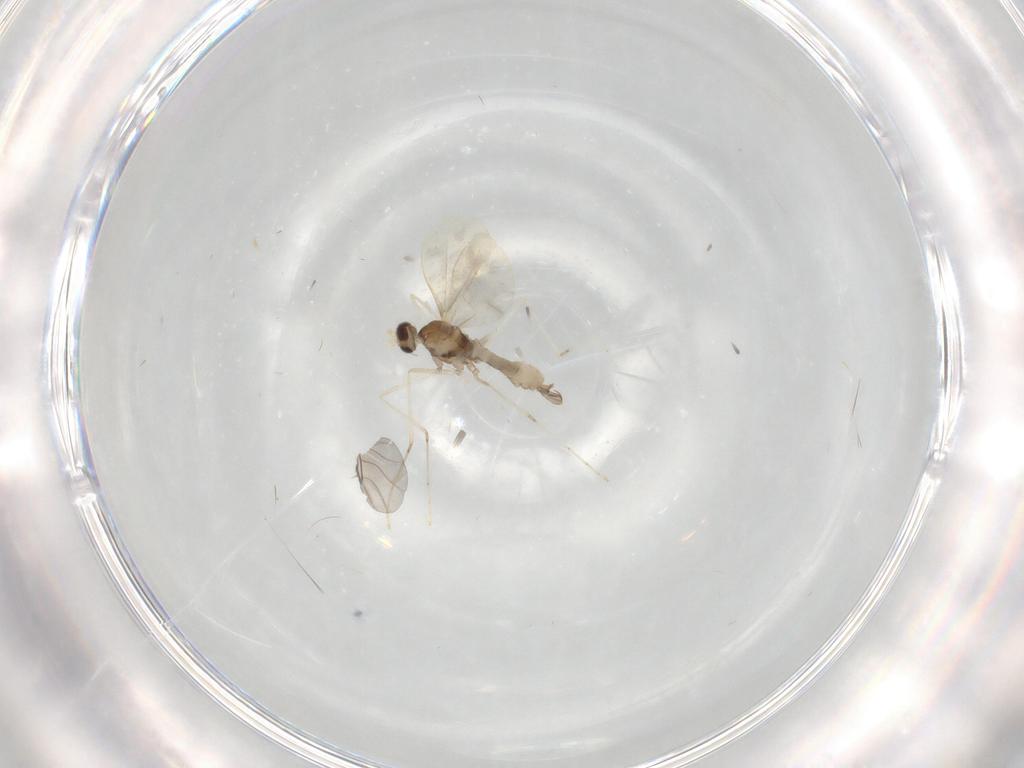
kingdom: Animalia
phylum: Arthropoda
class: Insecta
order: Diptera
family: Cecidomyiidae
